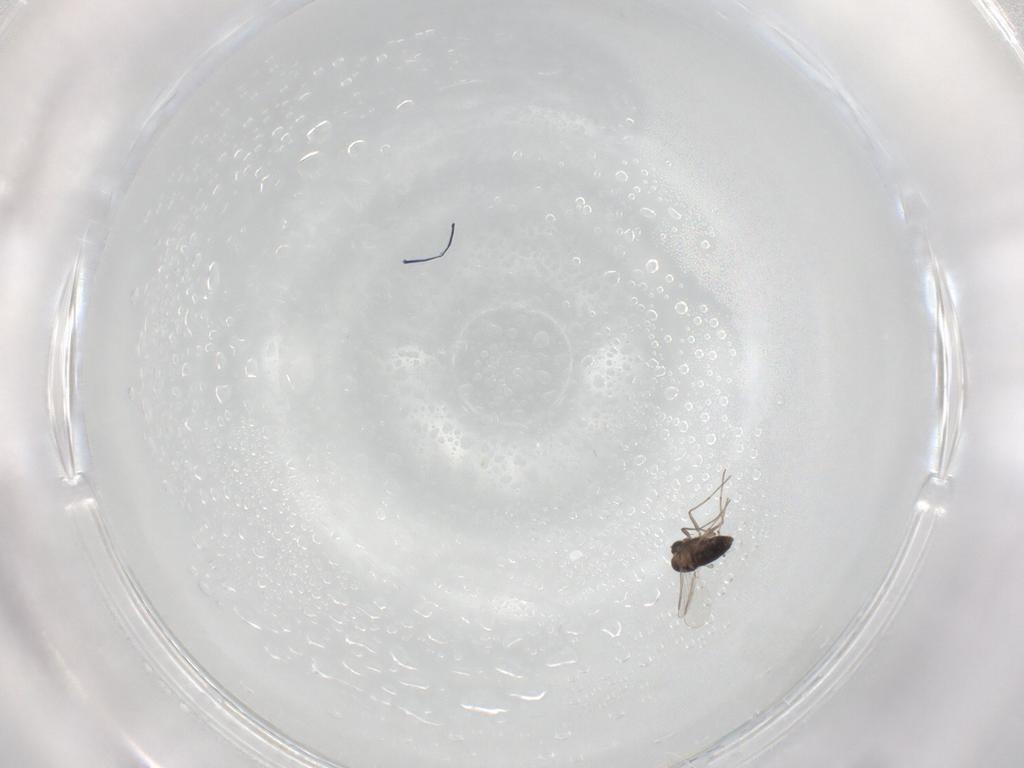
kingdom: Animalia
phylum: Arthropoda
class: Insecta
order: Diptera
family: Chironomidae
